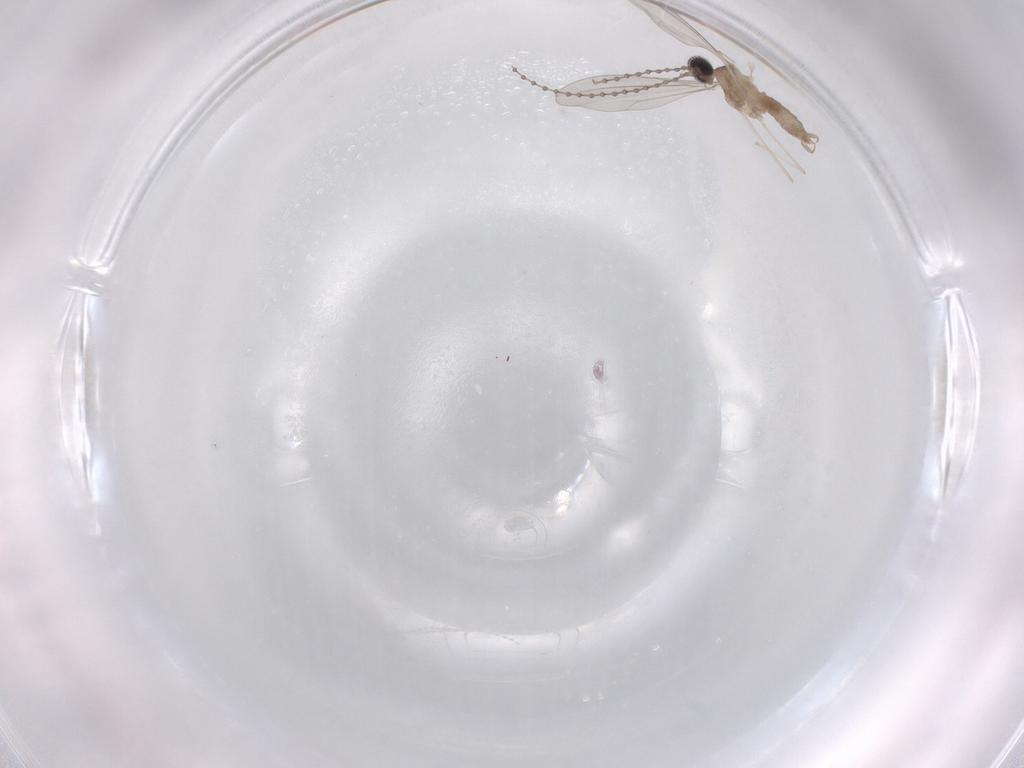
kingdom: Animalia
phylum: Arthropoda
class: Insecta
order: Diptera
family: Cecidomyiidae
